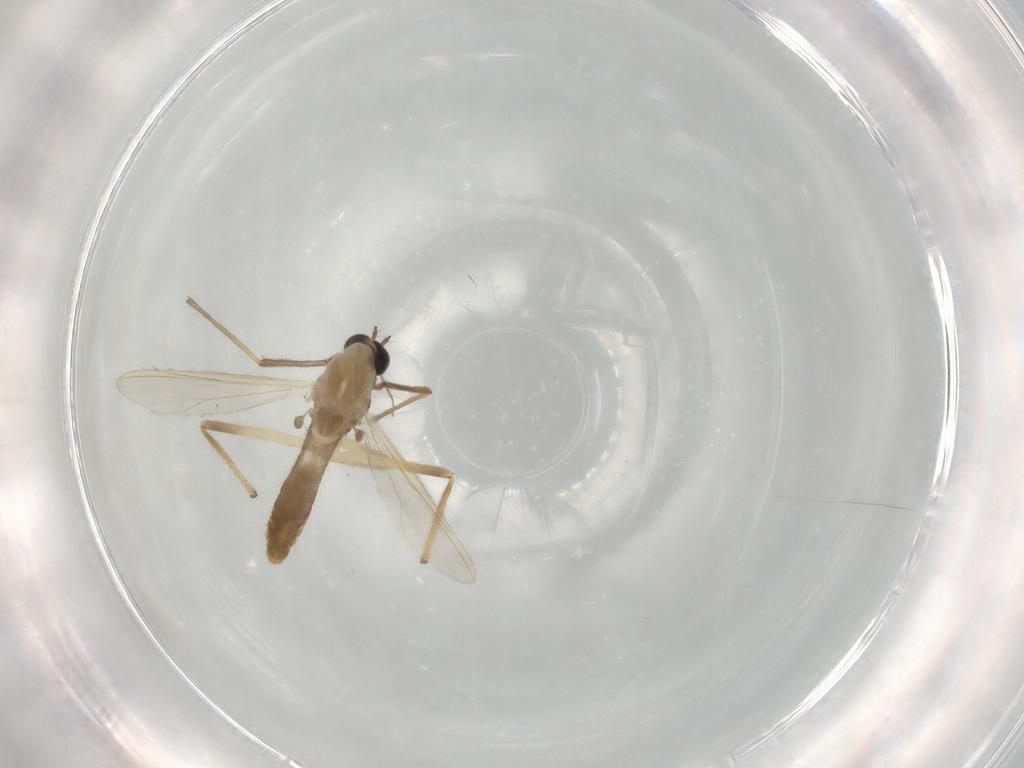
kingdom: Animalia
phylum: Arthropoda
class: Insecta
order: Diptera
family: Chironomidae
